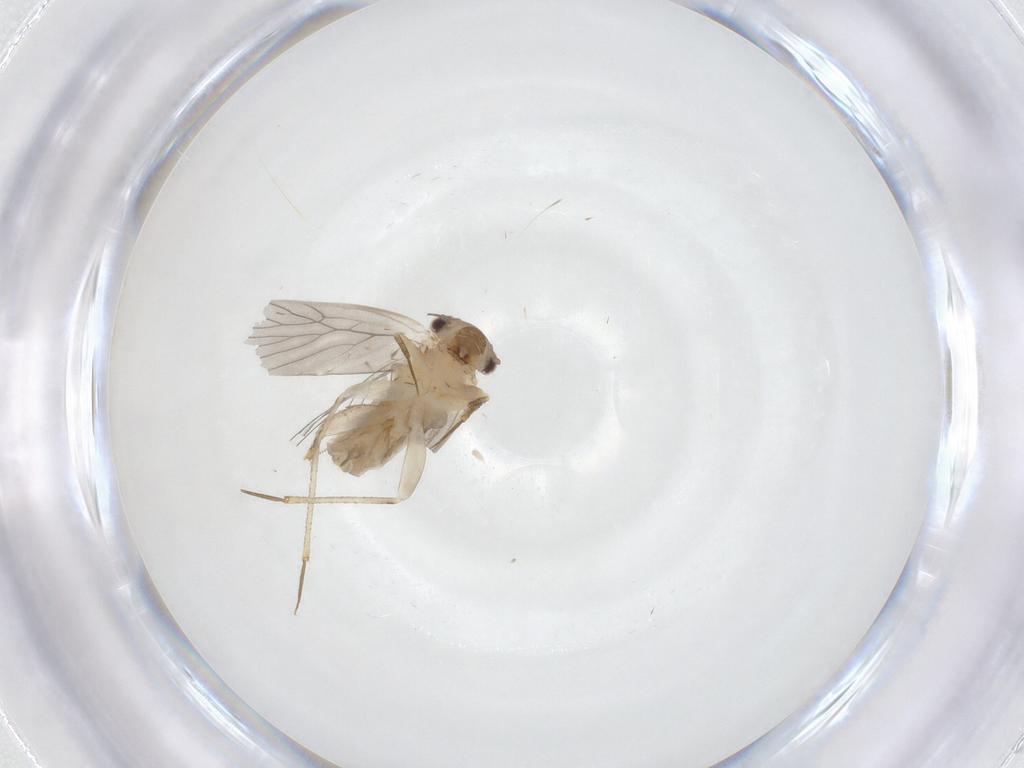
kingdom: Animalia
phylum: Arthropoda
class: Insecta
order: Psocodea
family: Lepidopsocidae
